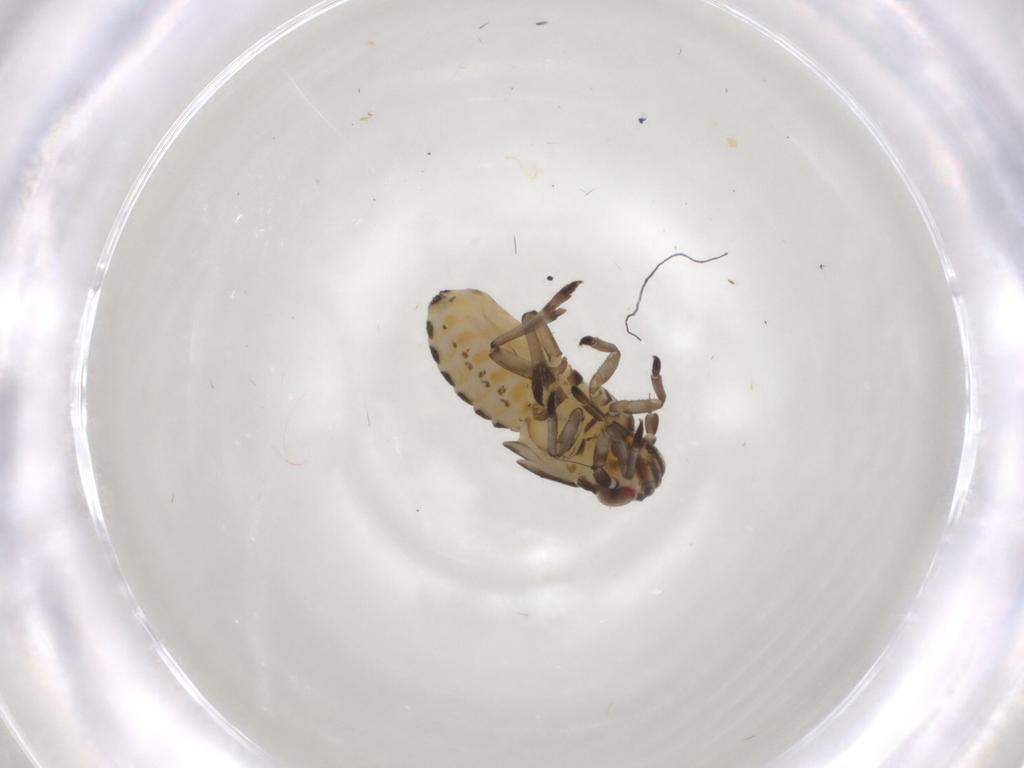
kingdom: Animalia
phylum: Arthropoda
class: Insecta
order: Hemiptera
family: Cicadellidae
